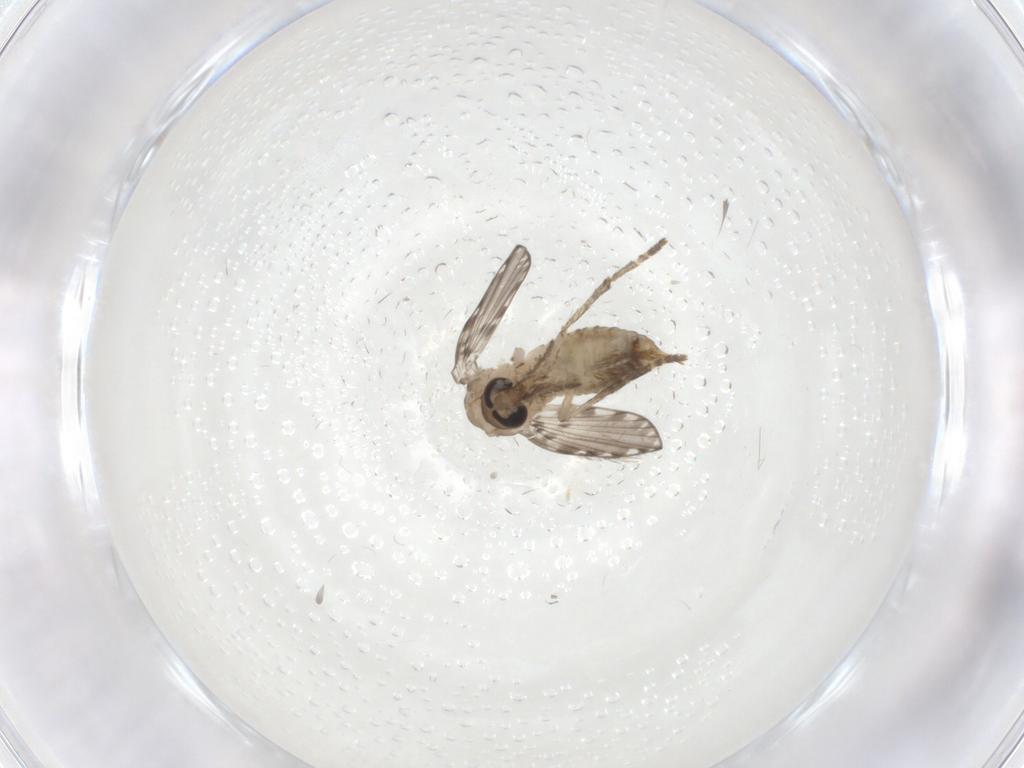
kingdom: Animalia
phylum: Arthropoda
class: Insecta
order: Diptera
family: Psychodidae
